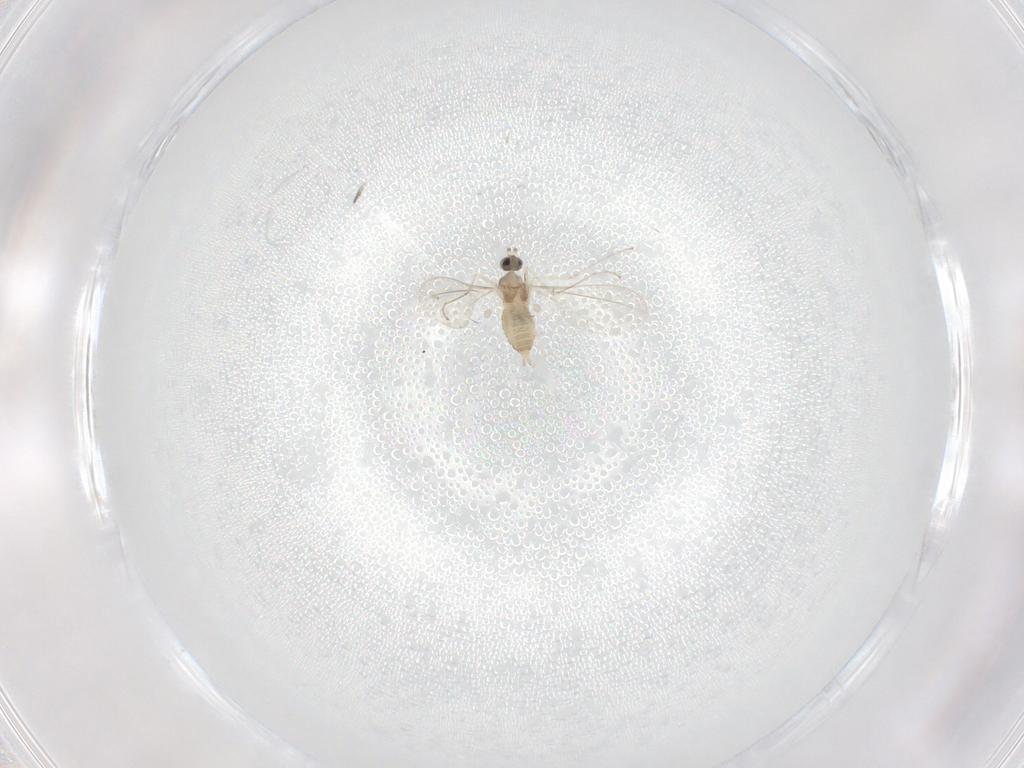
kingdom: Animalia
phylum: Arthropoda
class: Insecta
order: Diptera
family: Cecidomyiidae
